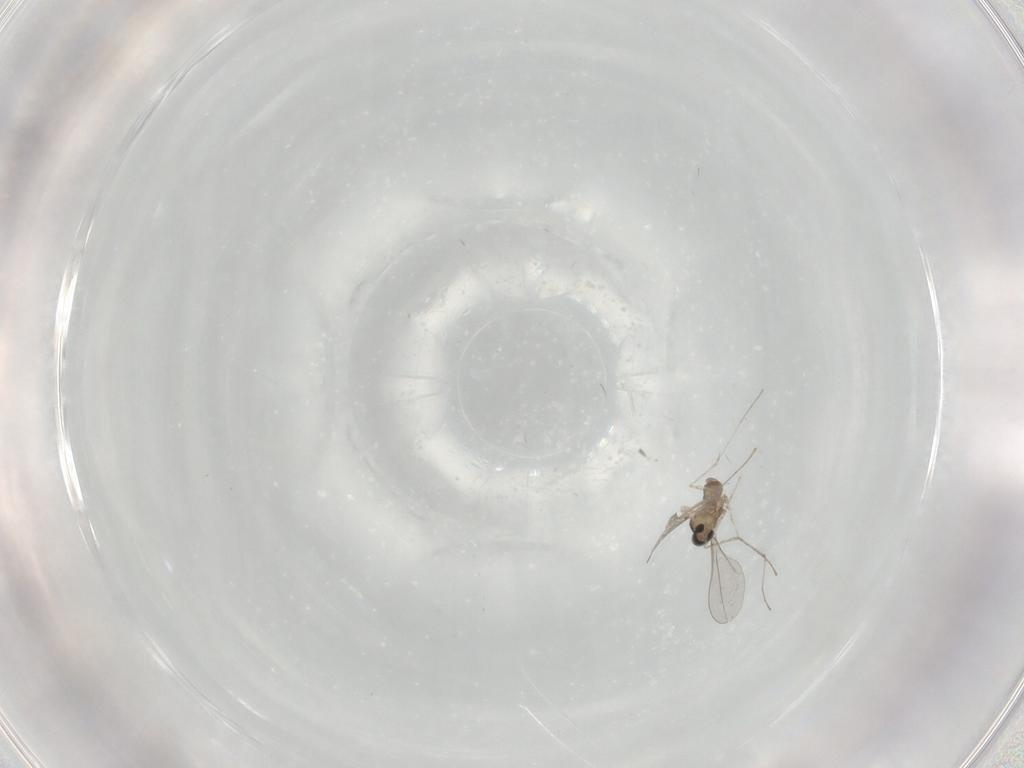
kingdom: Animalia
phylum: Arthropoda
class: Insecta
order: Diptera
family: Cecidomyiidae
